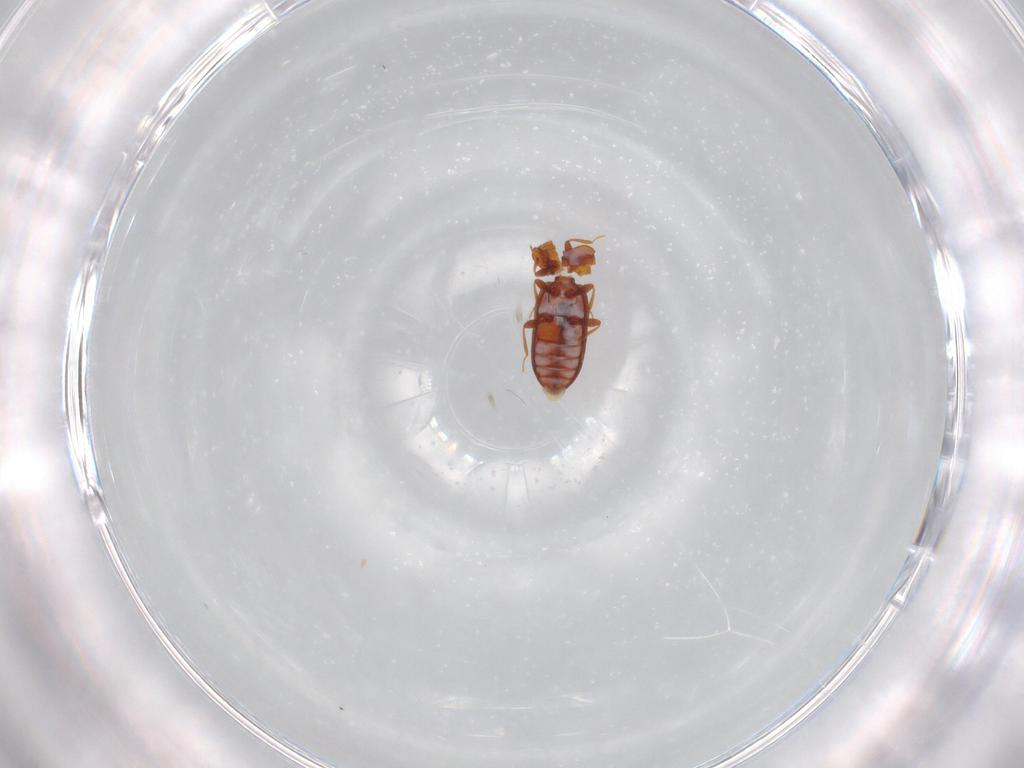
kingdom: Animalia
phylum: Arthropoda
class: Insecta
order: Coleoptera
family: Latridiidae
